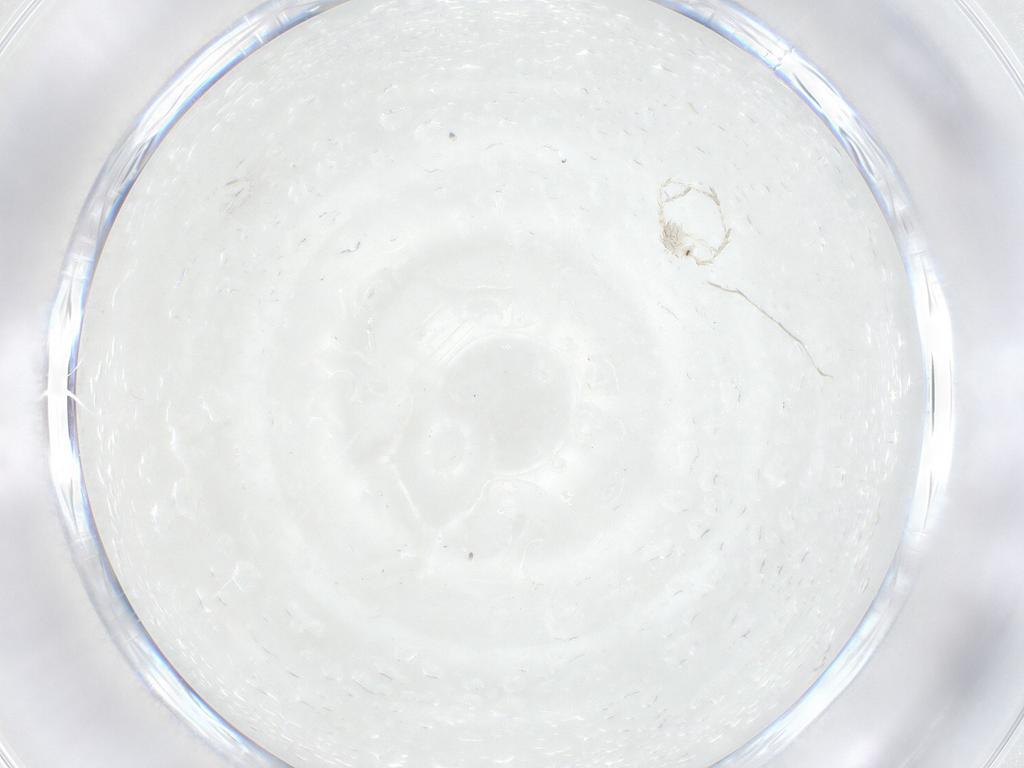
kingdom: Animalia
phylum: Arthropoda
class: Arachnida
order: Trombidiformes
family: Erythraeidae
